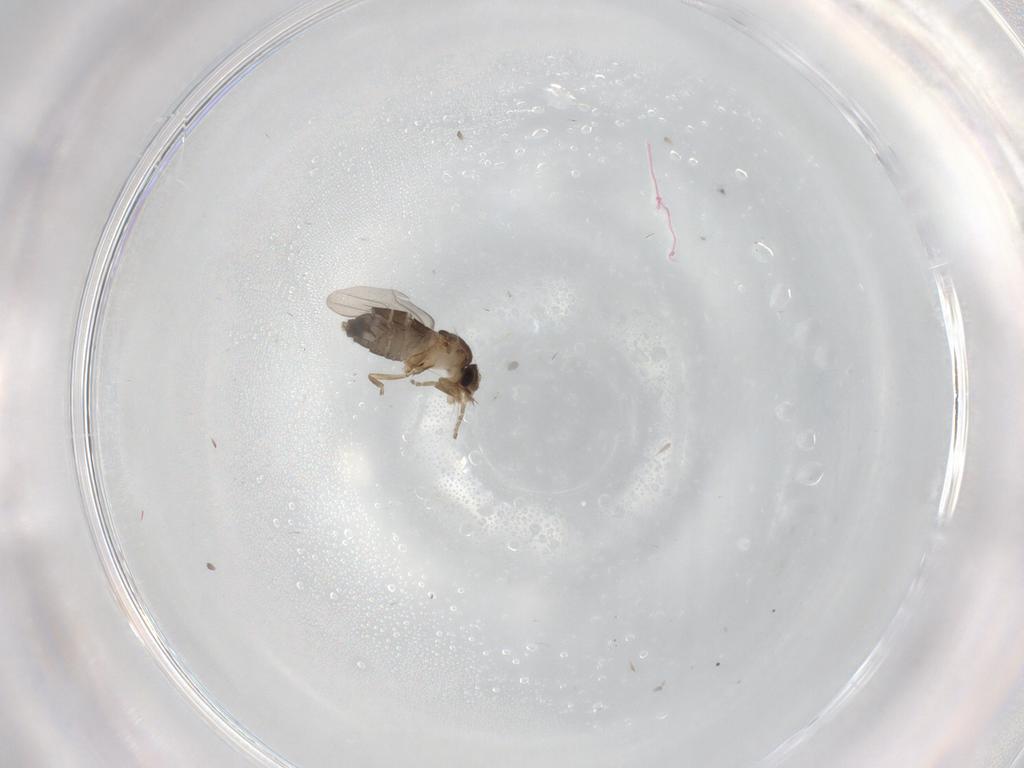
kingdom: Animalia
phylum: Arthropoda
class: Insecta
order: Diptera
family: Phoridae
